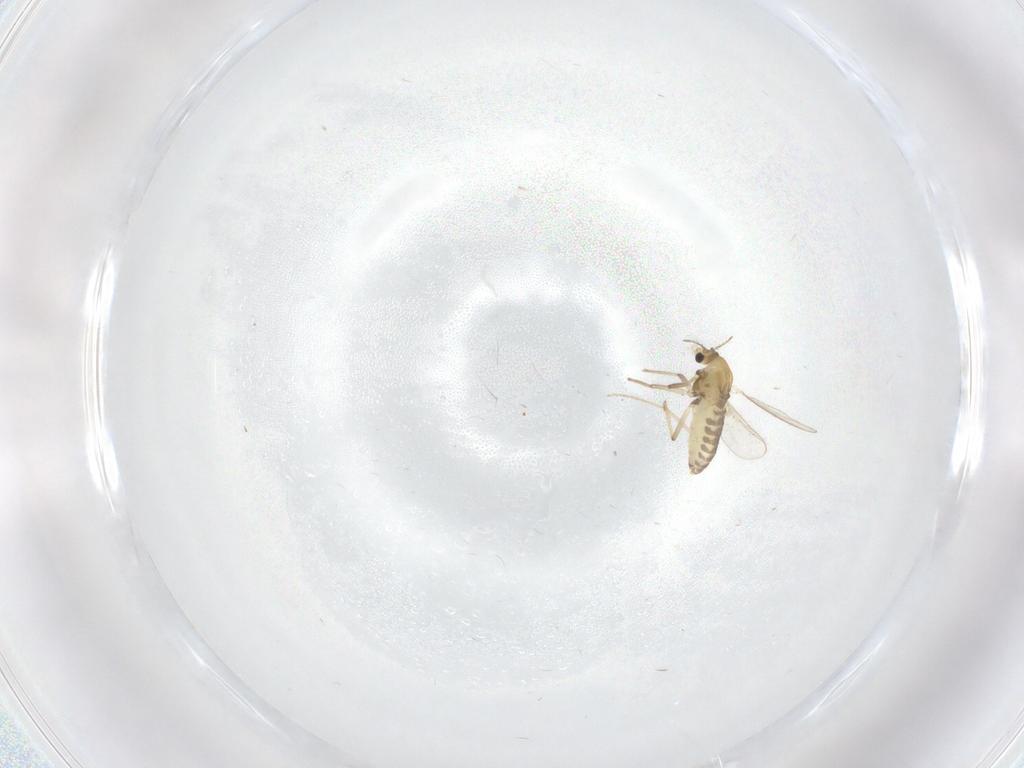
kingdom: Animalia
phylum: Arthropoda
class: Insecta
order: Diptera
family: Chironomidae
